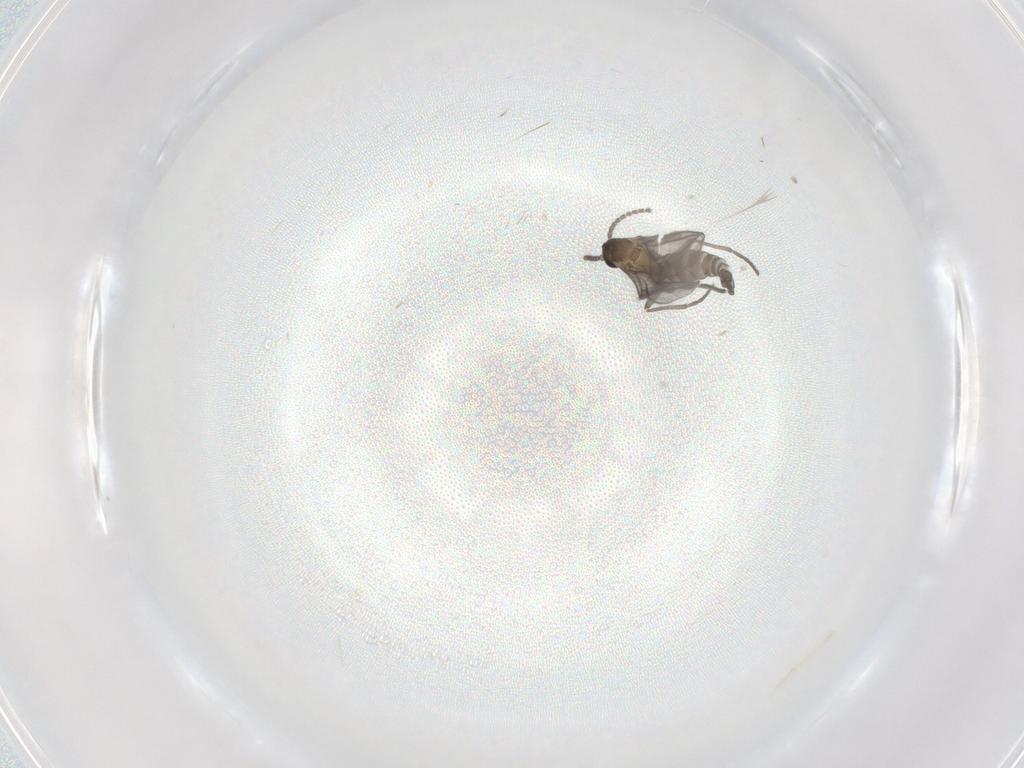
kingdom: Animalia
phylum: Arthropoda
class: Insecta
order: Diptera
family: Sciaridae
